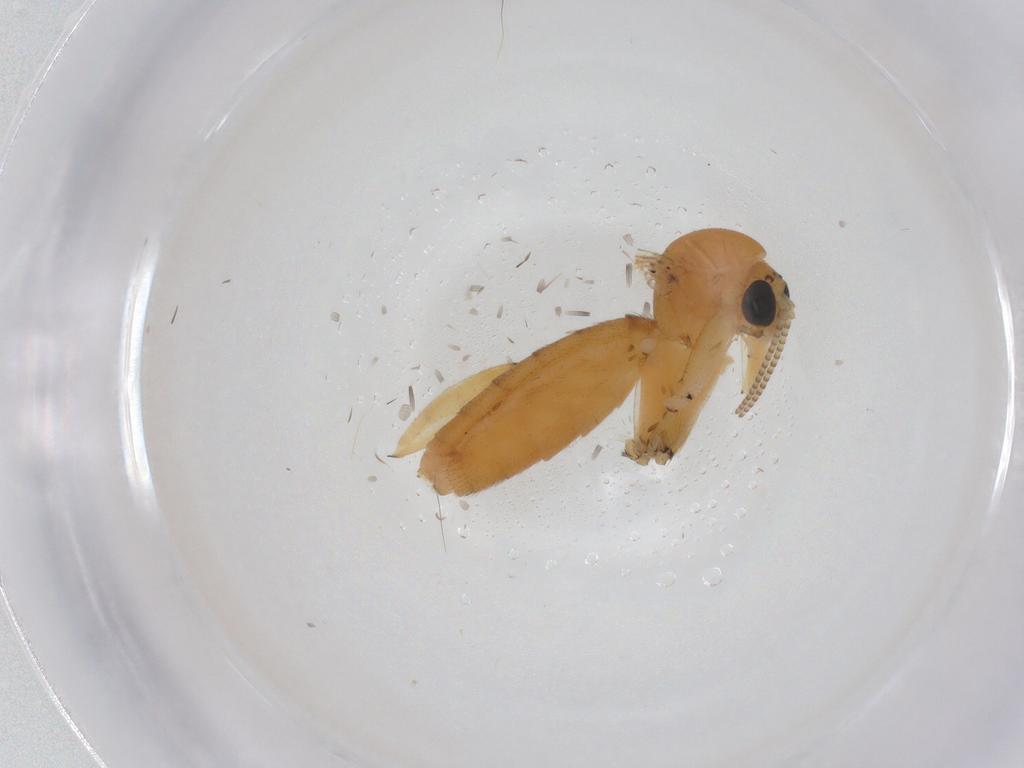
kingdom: Animalia
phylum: Arthropoda
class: Insecta
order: Diptera
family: Mycetophilidae
